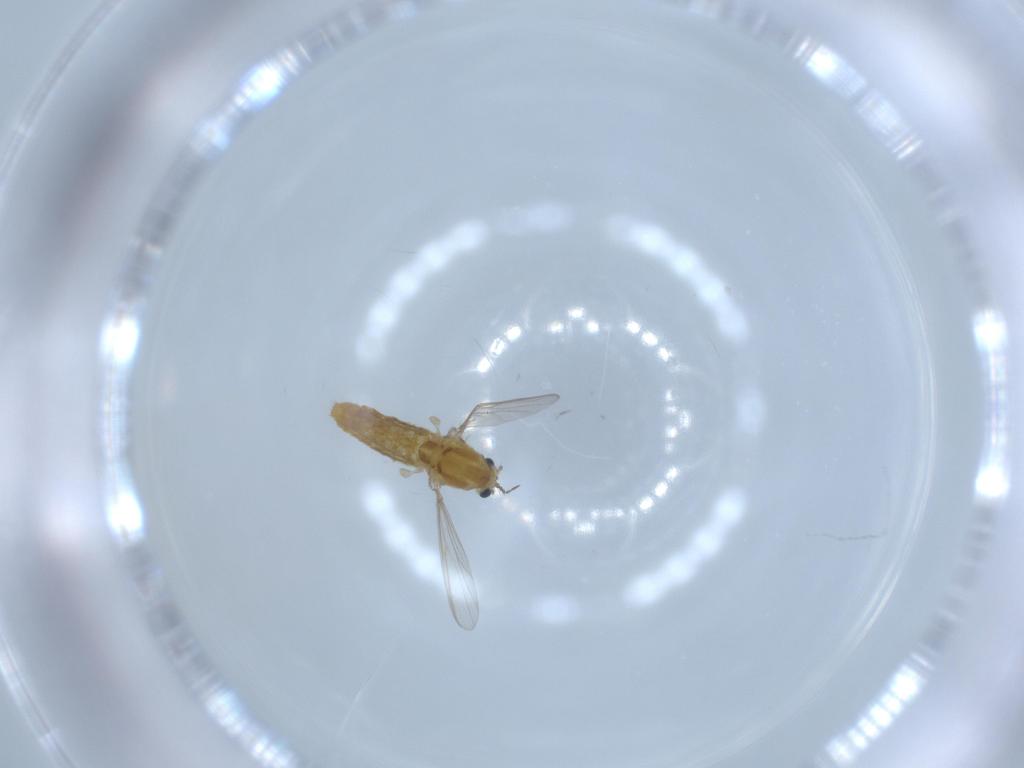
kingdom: Animalia
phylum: Arthropoda
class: Insecta
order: Diptera
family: Chironomidae
